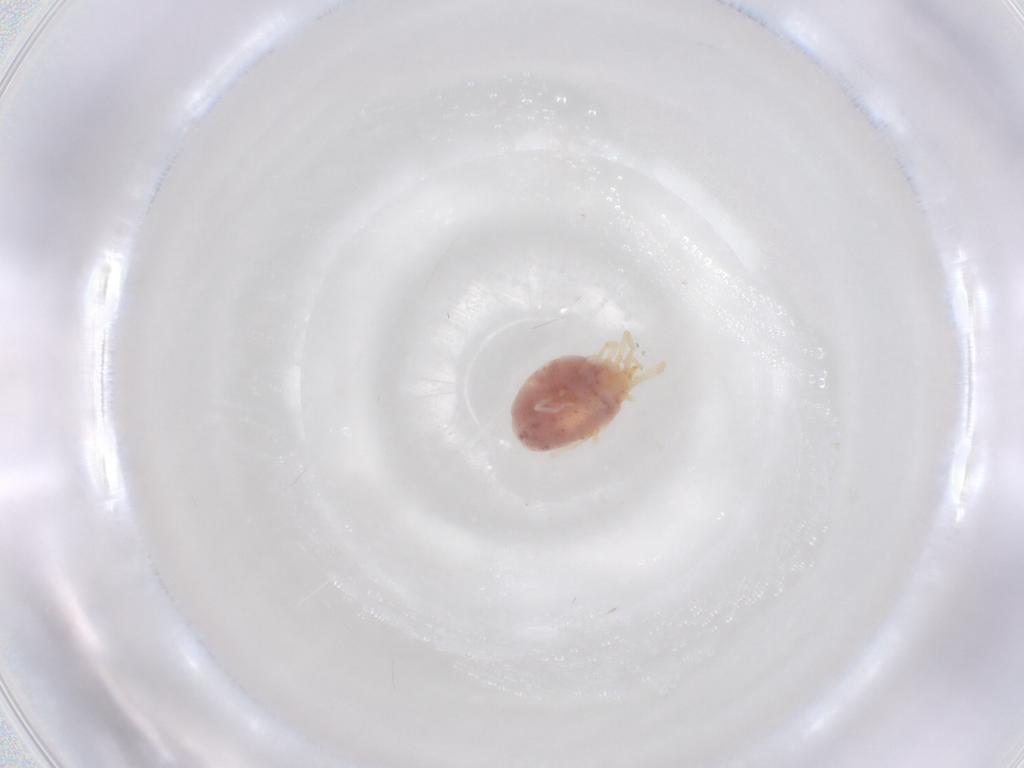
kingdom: Animalia
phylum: Arthropoda
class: Arachnida
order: Trombidiformes
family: Erythraeidae
